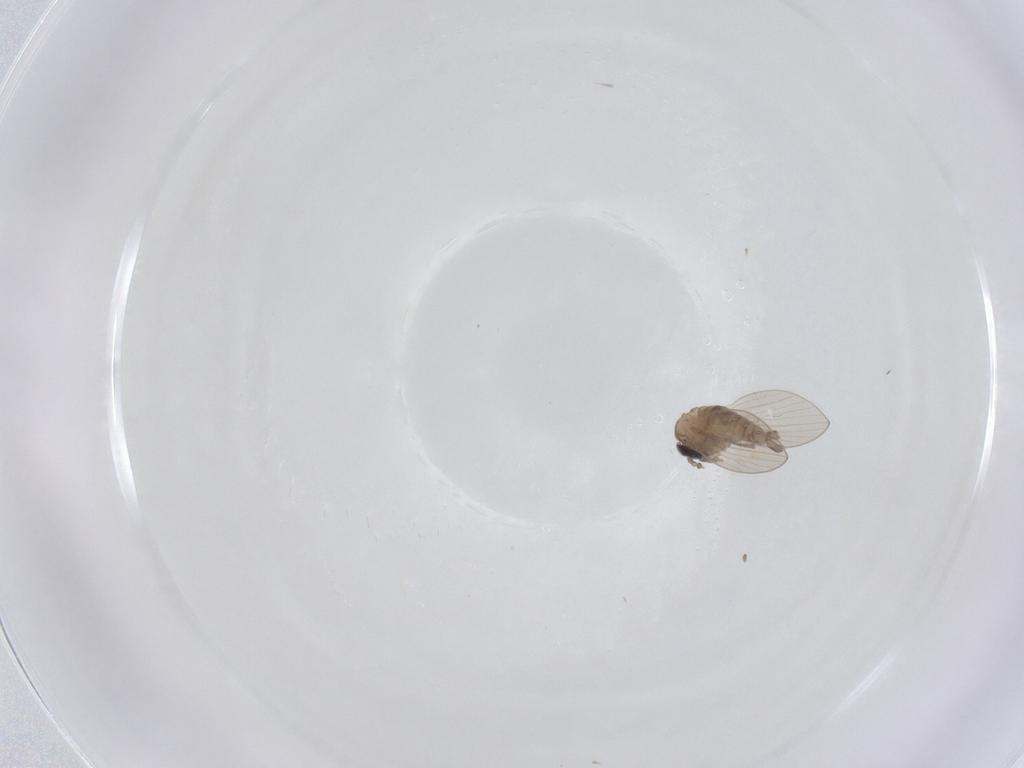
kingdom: Animalia
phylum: Arthropoda
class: Insecta
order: Diptera
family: Psychodidae
